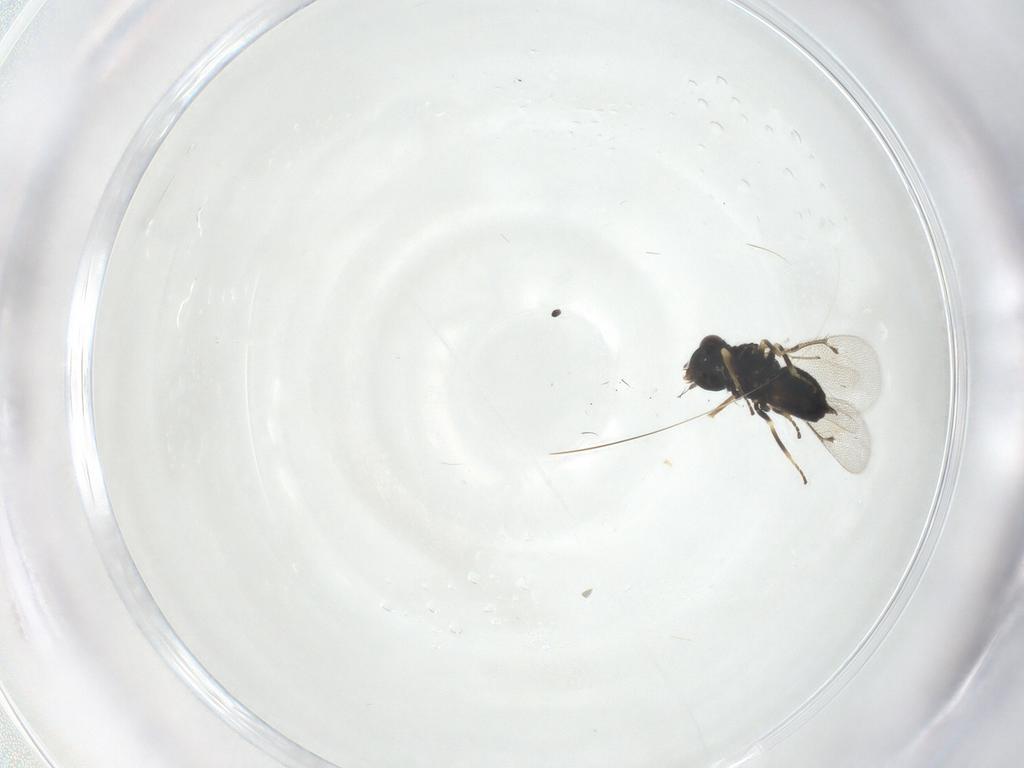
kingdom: Animalia
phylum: Arthropoda
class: Insecta
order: Hymenoptera
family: Eulophidae
